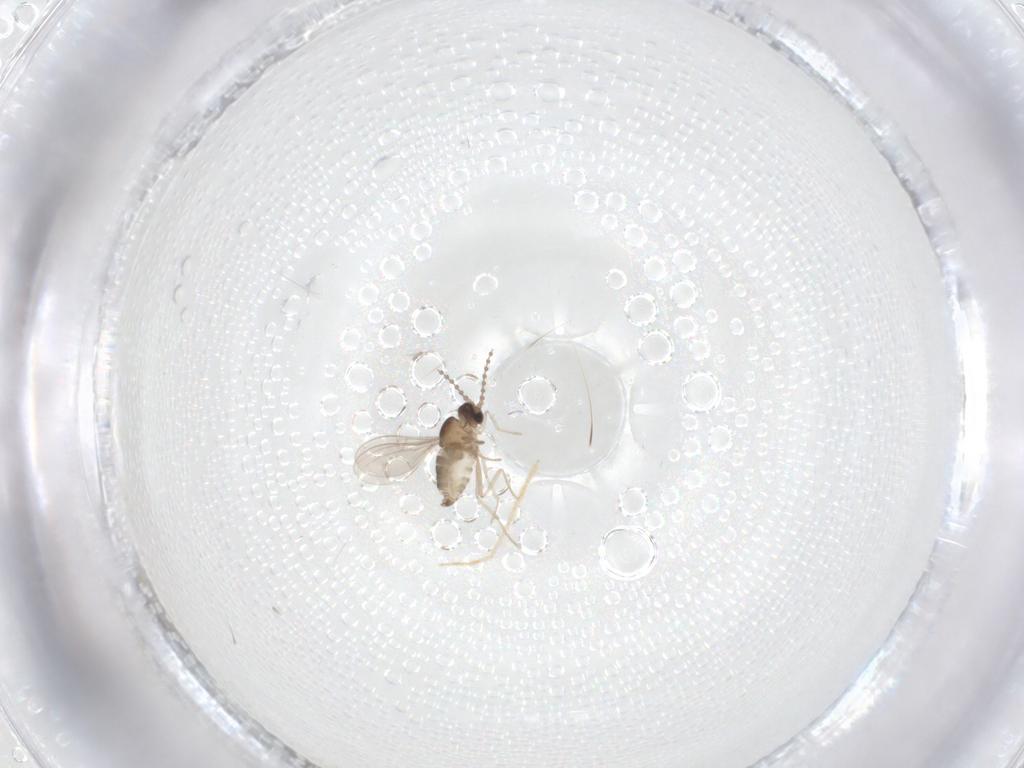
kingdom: Animalia
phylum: Arthropoda
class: Insecta
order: Diptera
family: Cecidomyiidae
